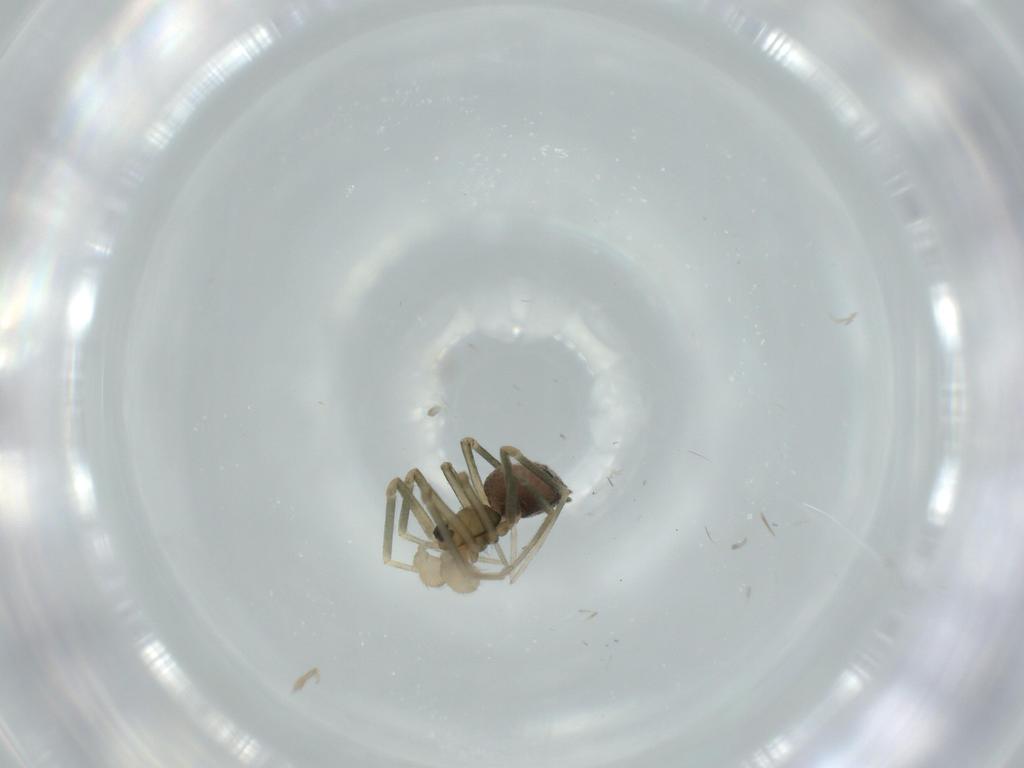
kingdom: Animalia
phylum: Arthropoda
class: Arachnida
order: Araneae
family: Linyphiidae
